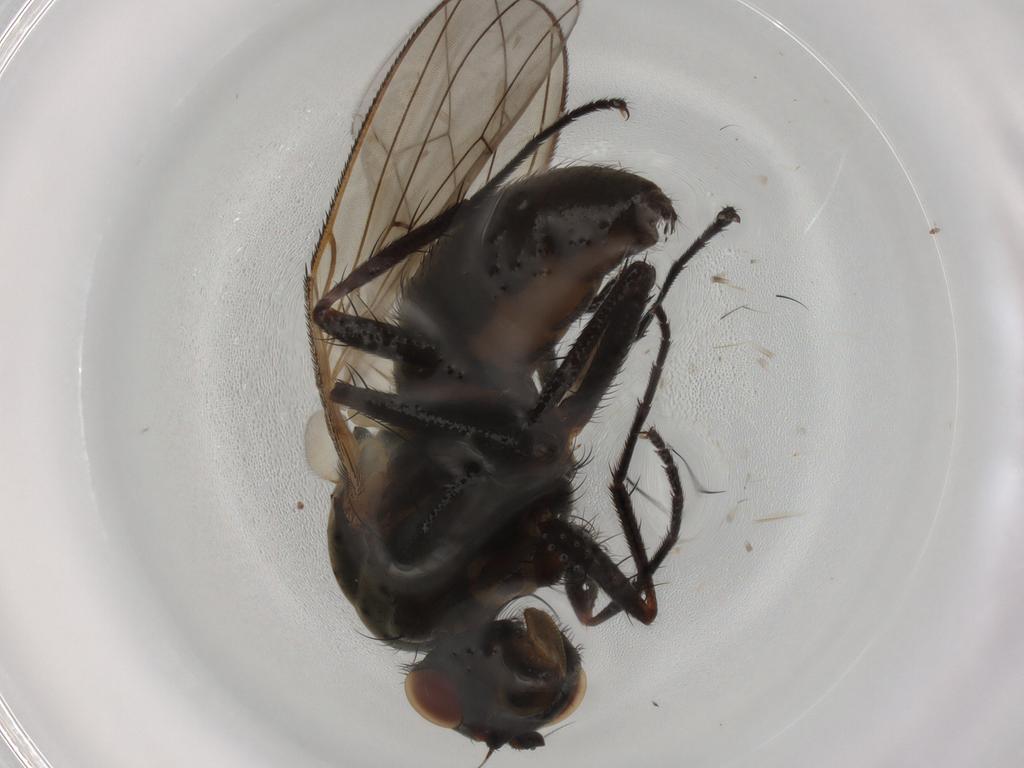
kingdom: Animalia
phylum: Arthropoda
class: Insecta
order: Diptera
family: Anthomyiidae
